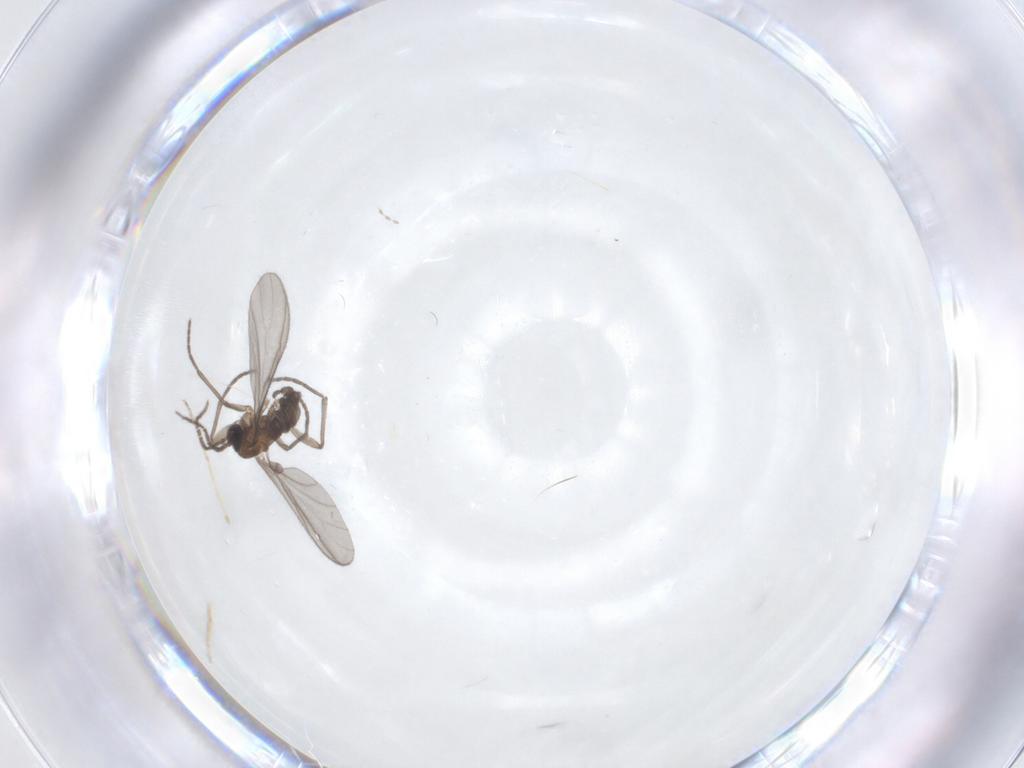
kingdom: Animalia
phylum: Arthropoda
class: Insecta
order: Diptera
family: Sciaridae
